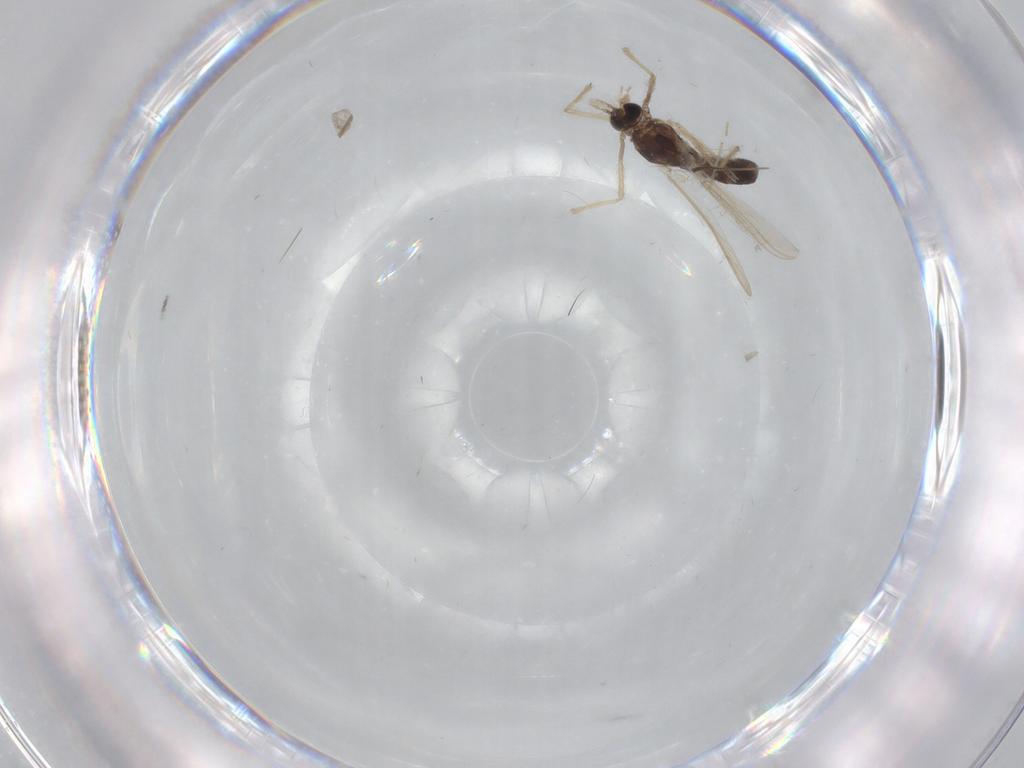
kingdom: Animalia
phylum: Arthropoda
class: Insecta
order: Diptera
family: Chironomidae
